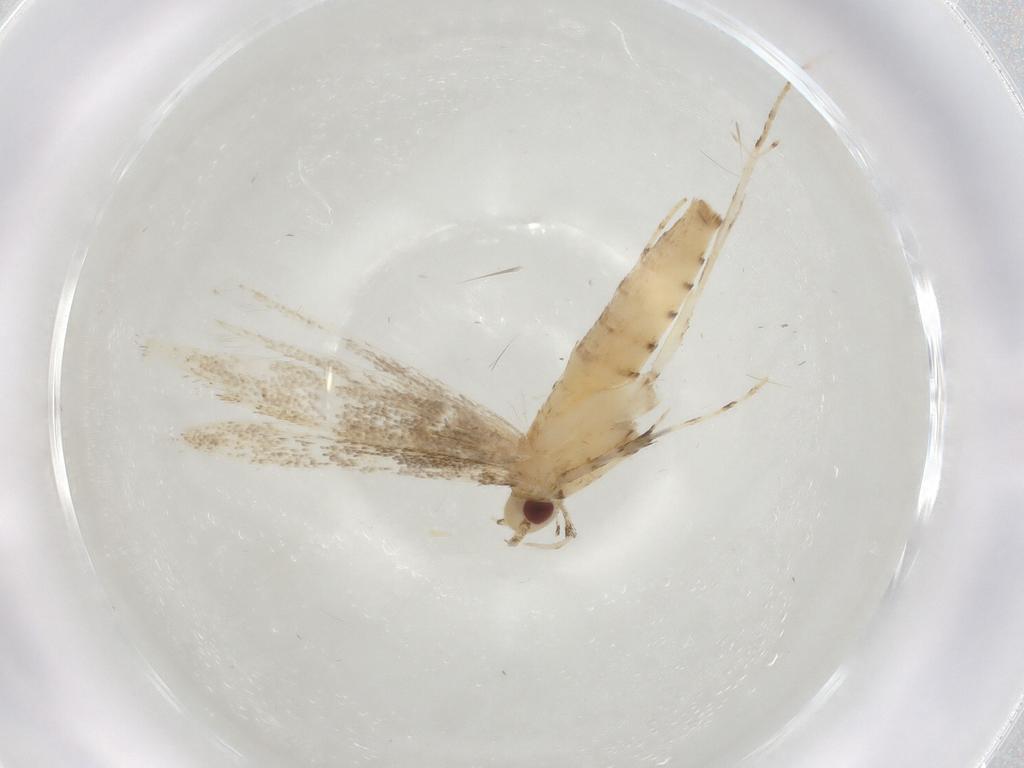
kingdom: Animalia
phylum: Arthropoda
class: Insecta
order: Lepidoptera
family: Gracillariidae
